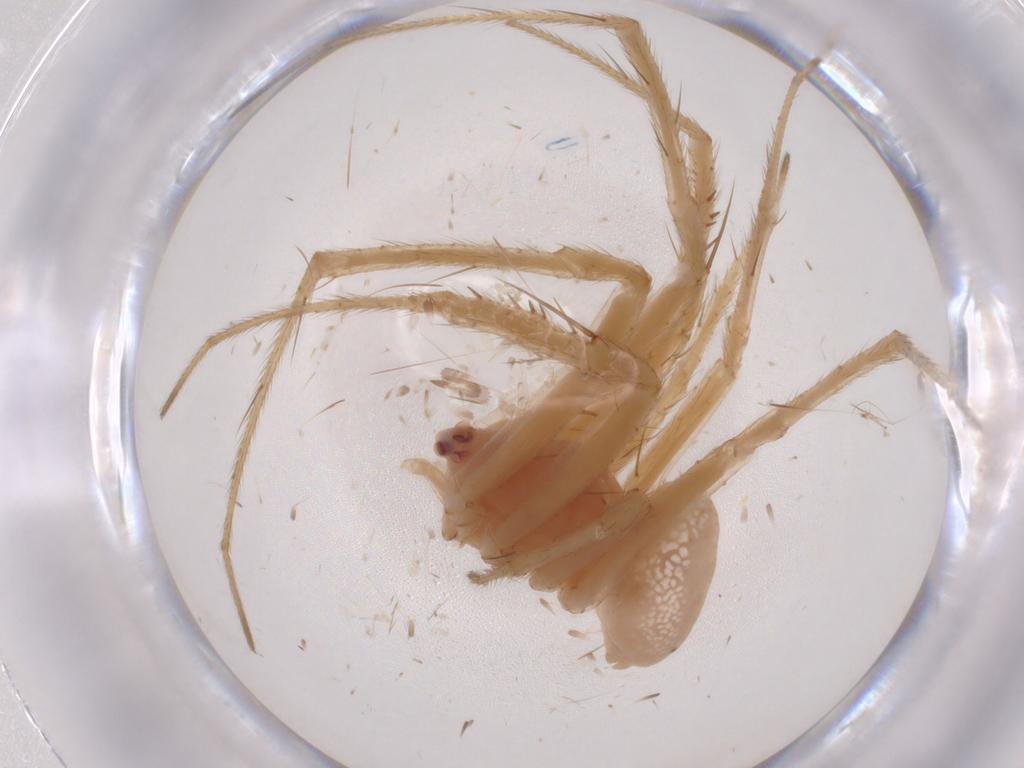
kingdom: Animalia
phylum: Arthropoda
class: Arachnida
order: Araneae
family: Araneidae
